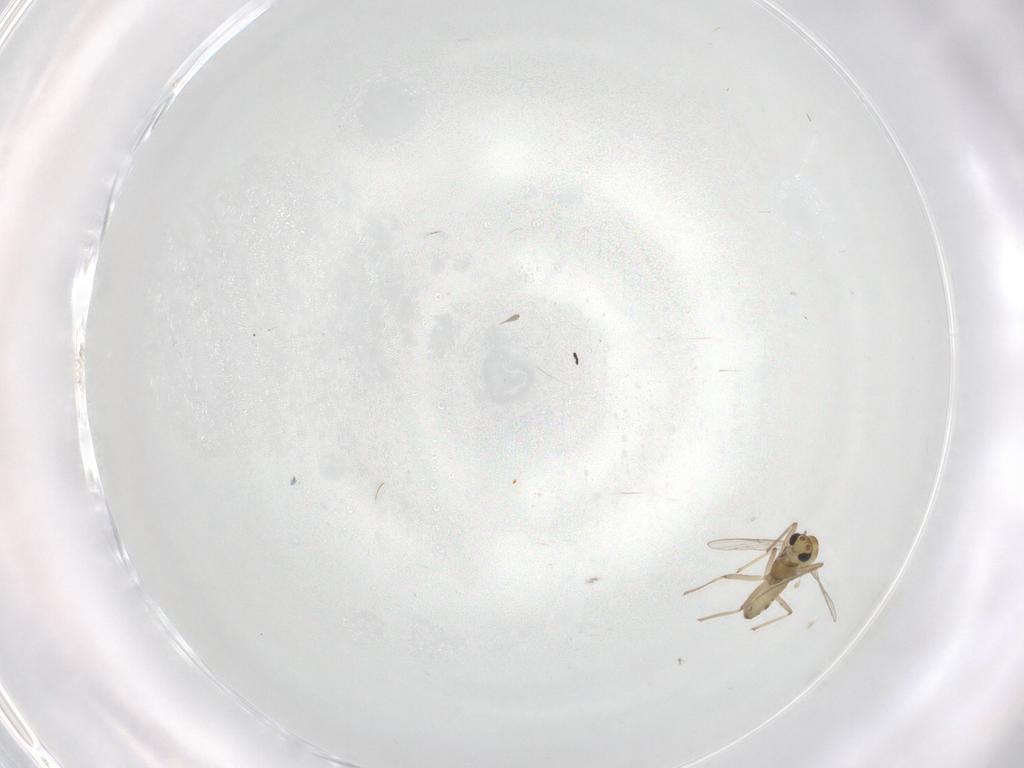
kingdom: Animalia
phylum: Arthropoda
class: Insecta
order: Diptera
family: Chironomidae
